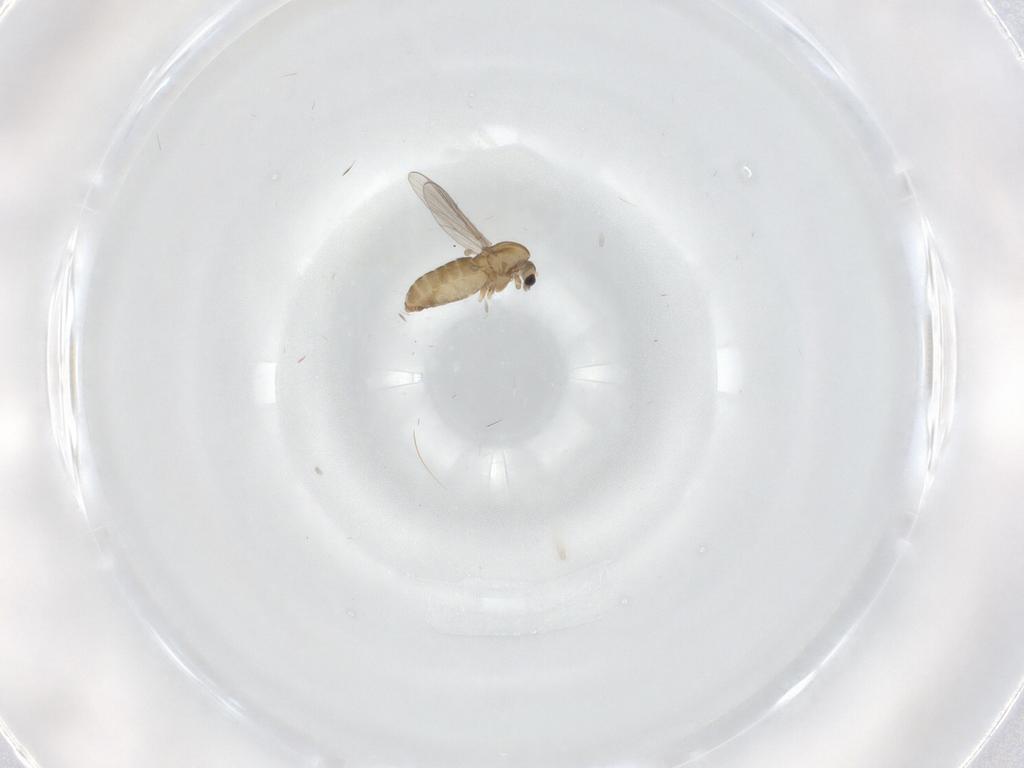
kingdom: Animalia
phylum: Arthropoda
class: Insecta
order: Diptera
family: Chironomidae
